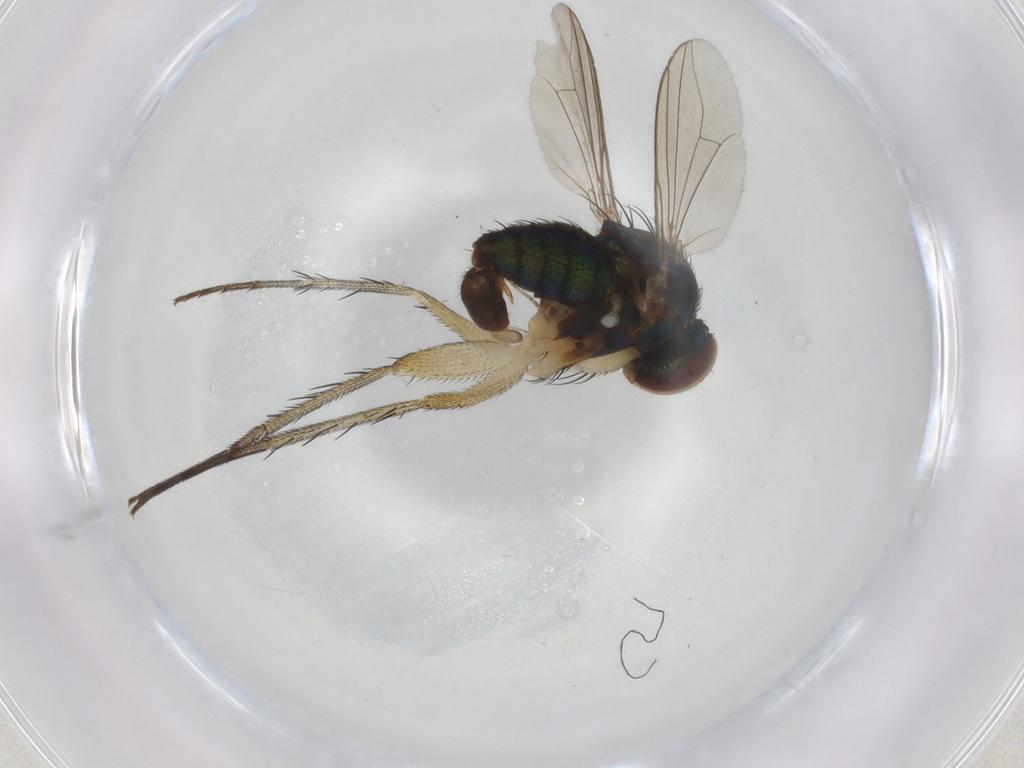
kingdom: Animalia
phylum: Arthropoda
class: Insecta
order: Diptera
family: Dolichopodidae
